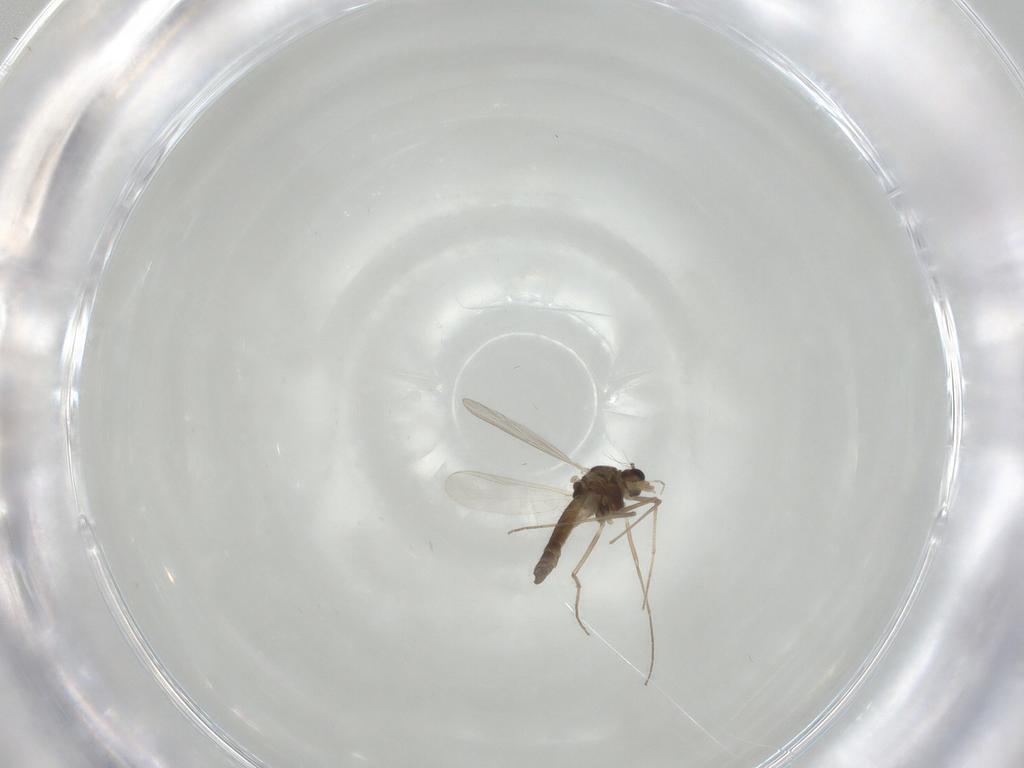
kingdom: Animalia
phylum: Arthropoda
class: Insecta
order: Diptera
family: Chironomidae
